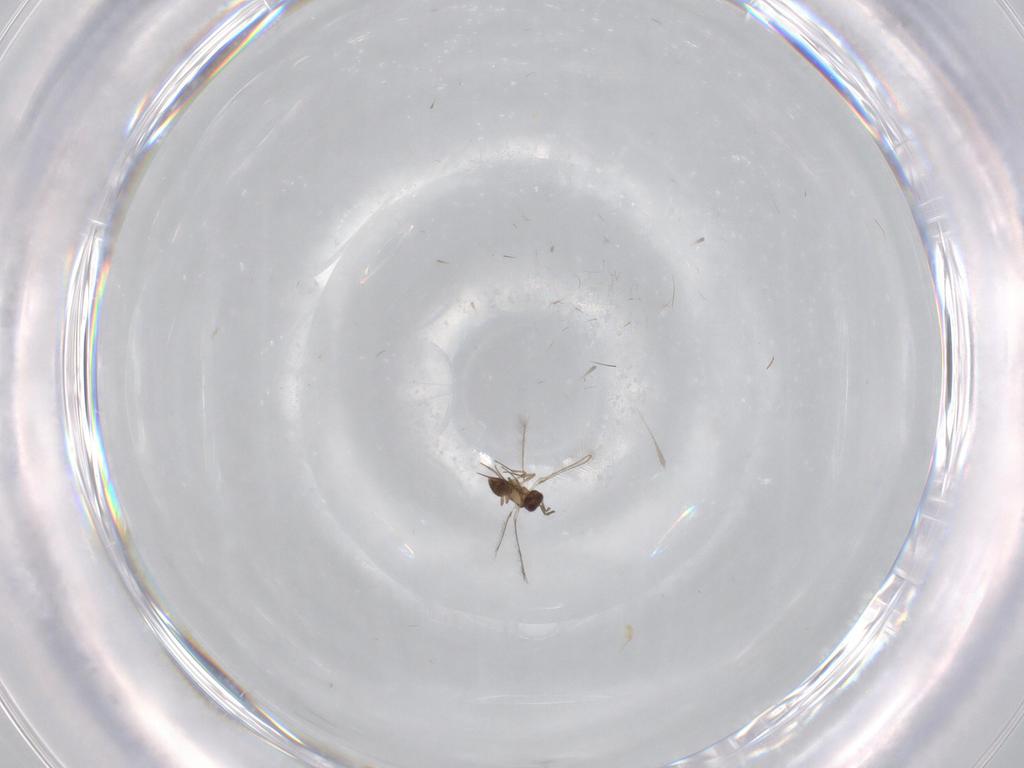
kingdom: Animalia
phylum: Arthropoda
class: Insecta
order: Hymenoptera
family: Mymaridae
